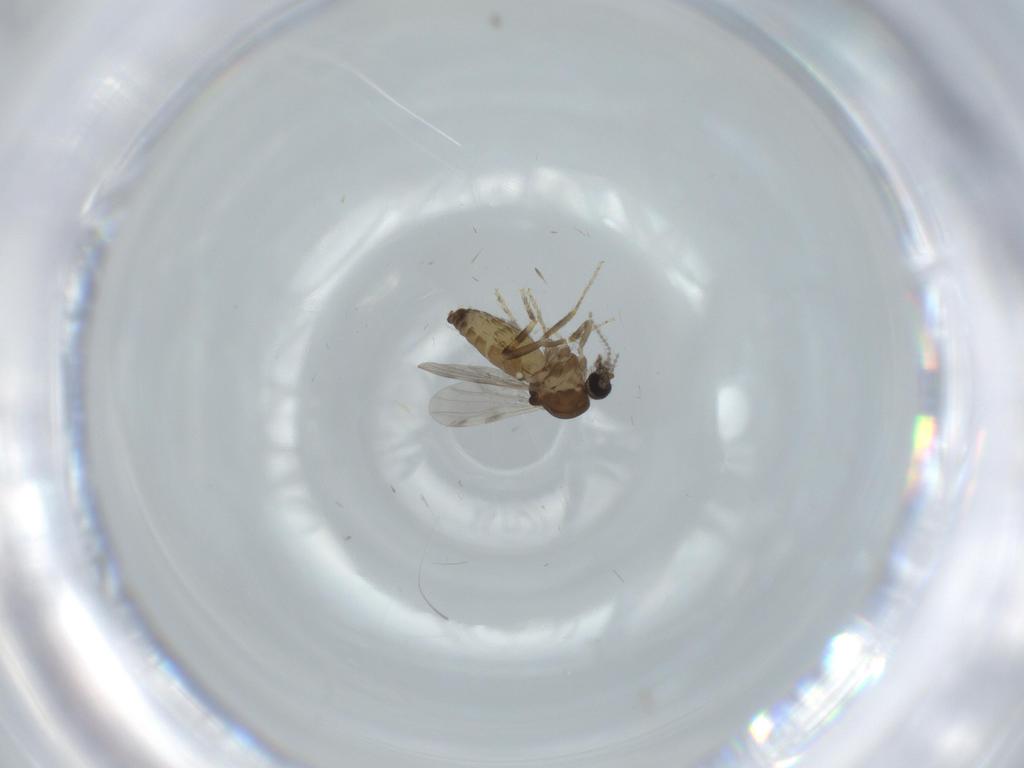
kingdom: Animalia
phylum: Arthropoda
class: Insecta
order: Diptera
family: Ceratopogonidae
